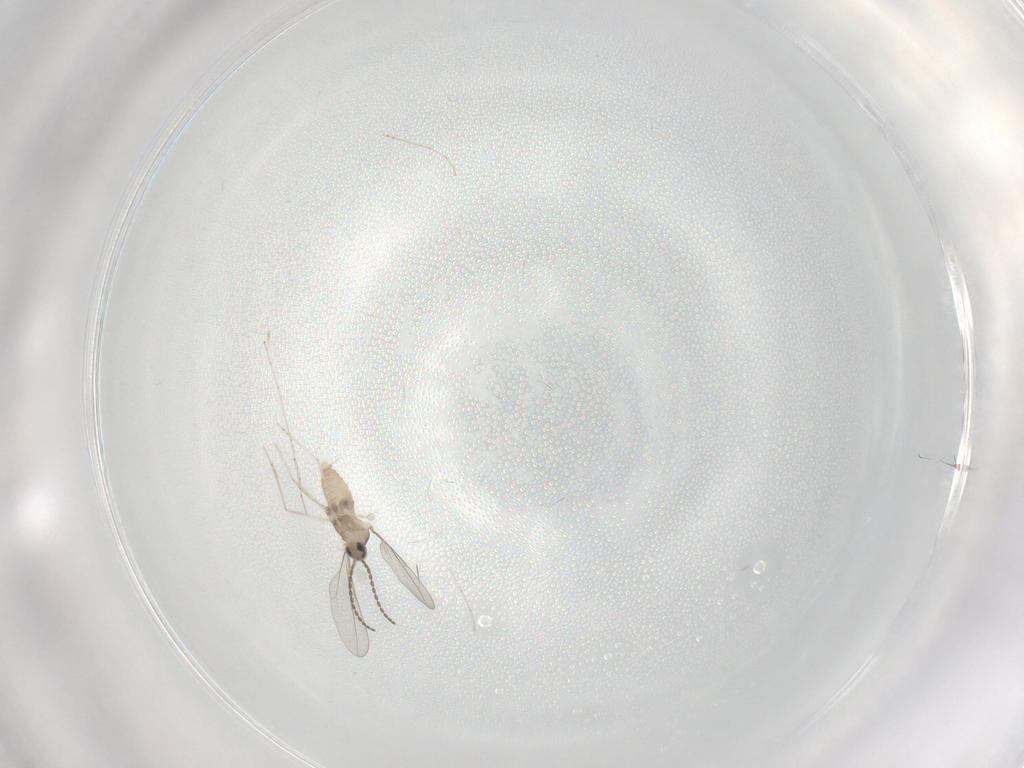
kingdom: Animalia
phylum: Arthropoda
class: Insecta
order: Diptera
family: Cecidomyiidae
